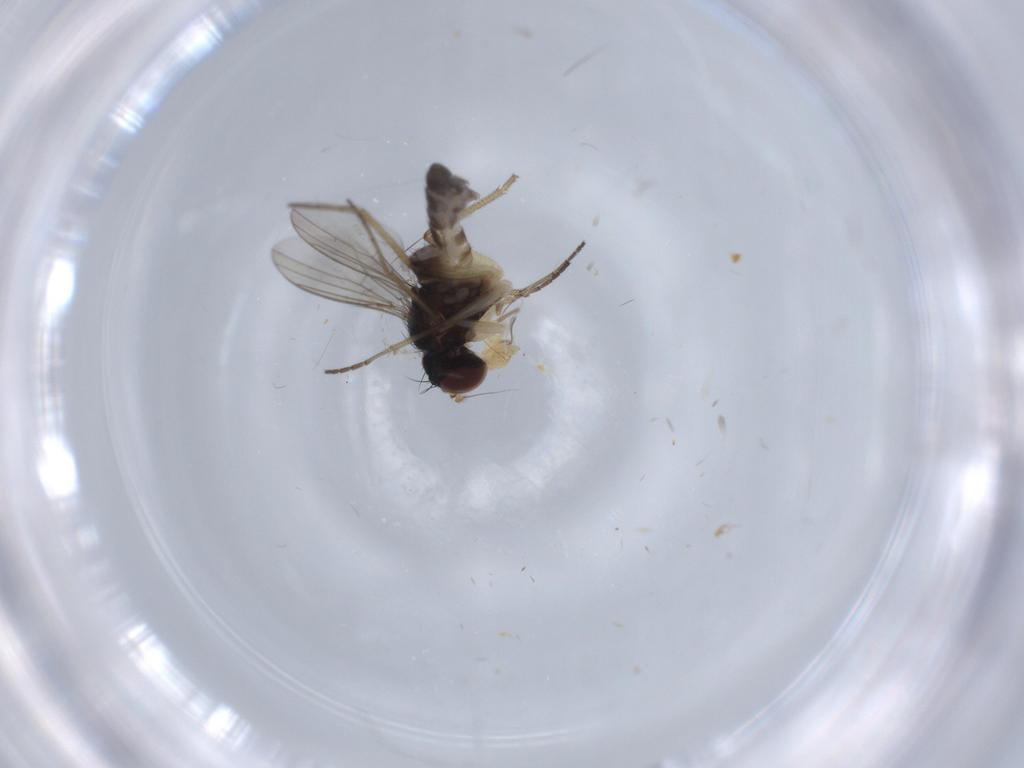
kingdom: Animalia
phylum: Arthropoda
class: Insecta
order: Diptera
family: Dolichopodidae
